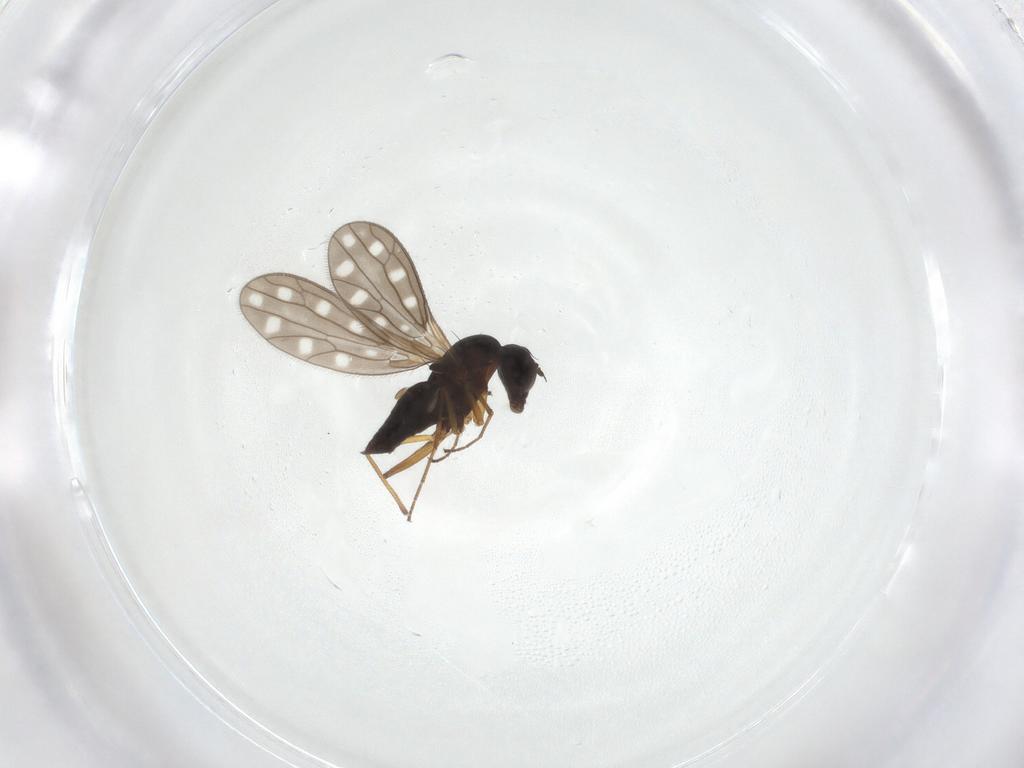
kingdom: Animalia
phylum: Arthropoda
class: Insecta
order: Diptera
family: Empididae
